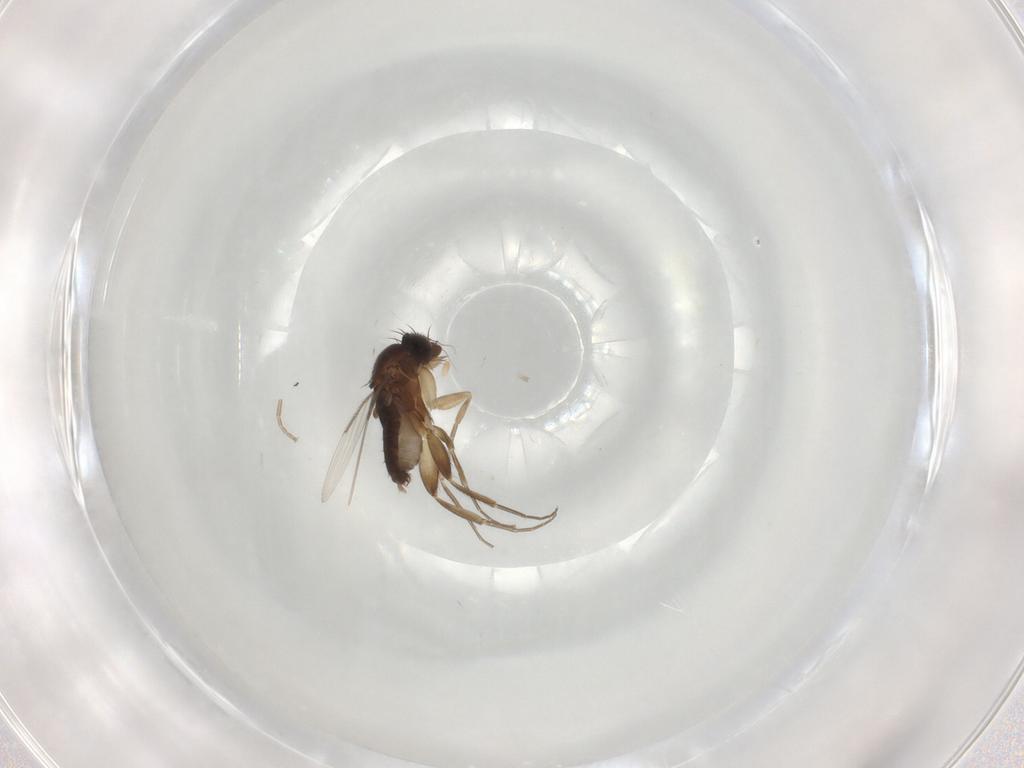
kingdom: Animalia
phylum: Arthropoda
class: Insecta
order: Diptera
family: Phoridae
